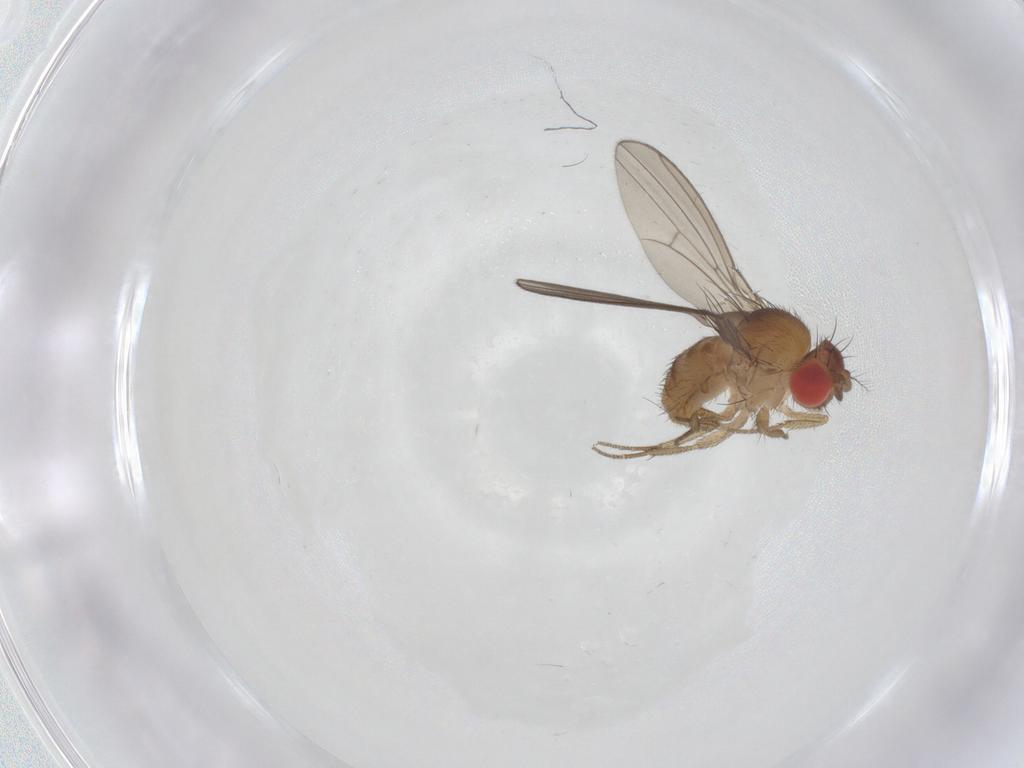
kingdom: Animalia
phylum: Arthropoda
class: Insecta
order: Diptera
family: Drosophilidae
